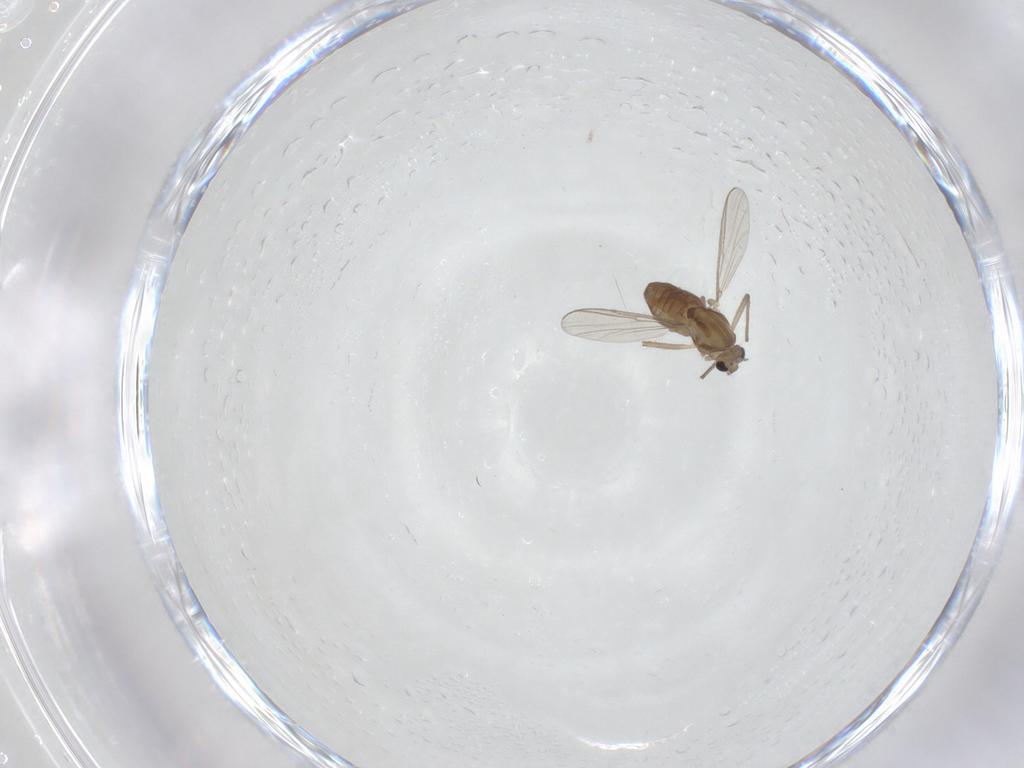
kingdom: Animalia
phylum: Arthropoda
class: Insecta
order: Diptera
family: Chironomidae
